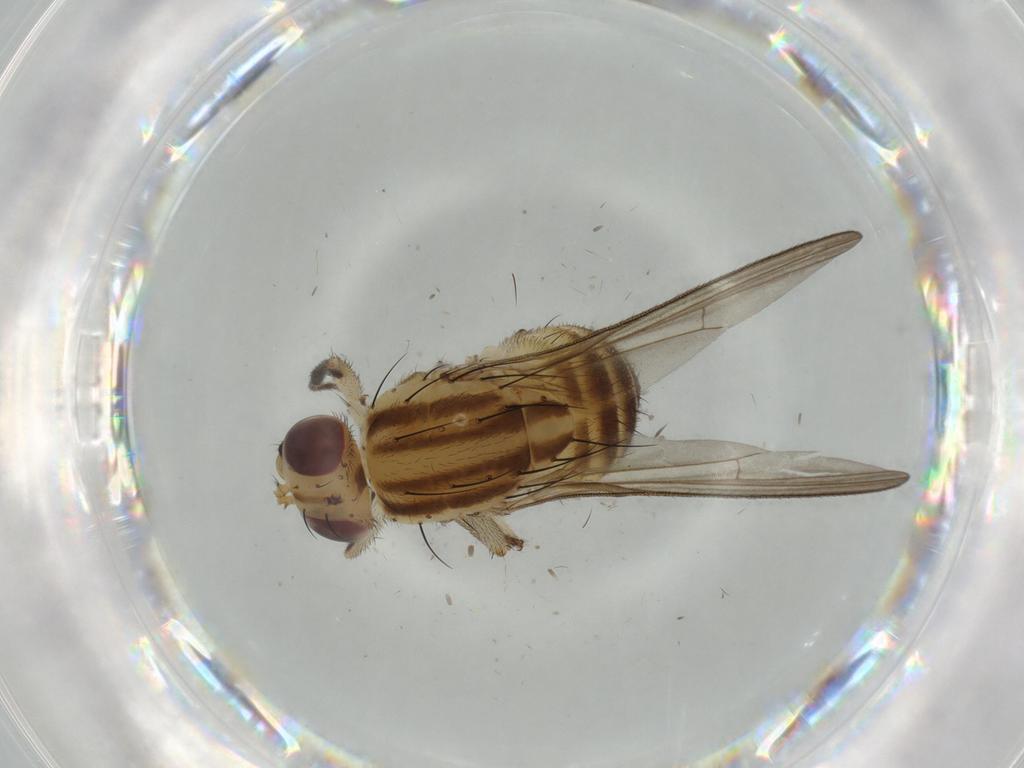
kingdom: Animalia
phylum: Arthropoda
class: Insecta
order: Diptera
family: Lauxaniidae
